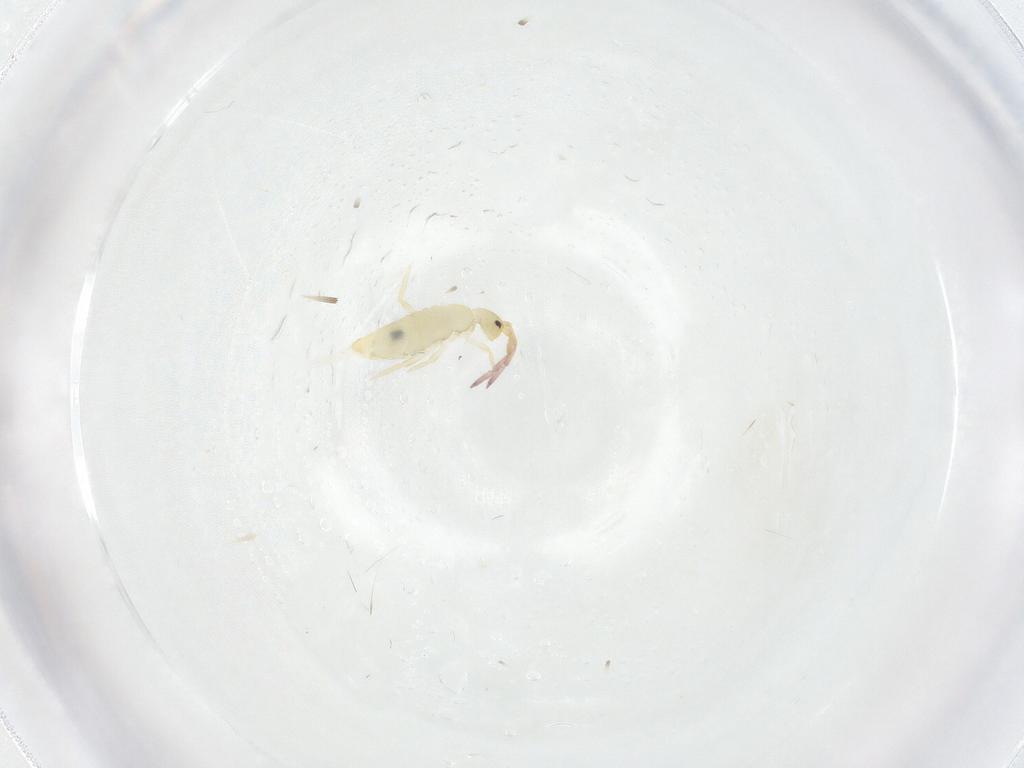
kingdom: Animalia
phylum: Arthropoda
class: Collembola
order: Entomobryomorpha
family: Entomobryidae
